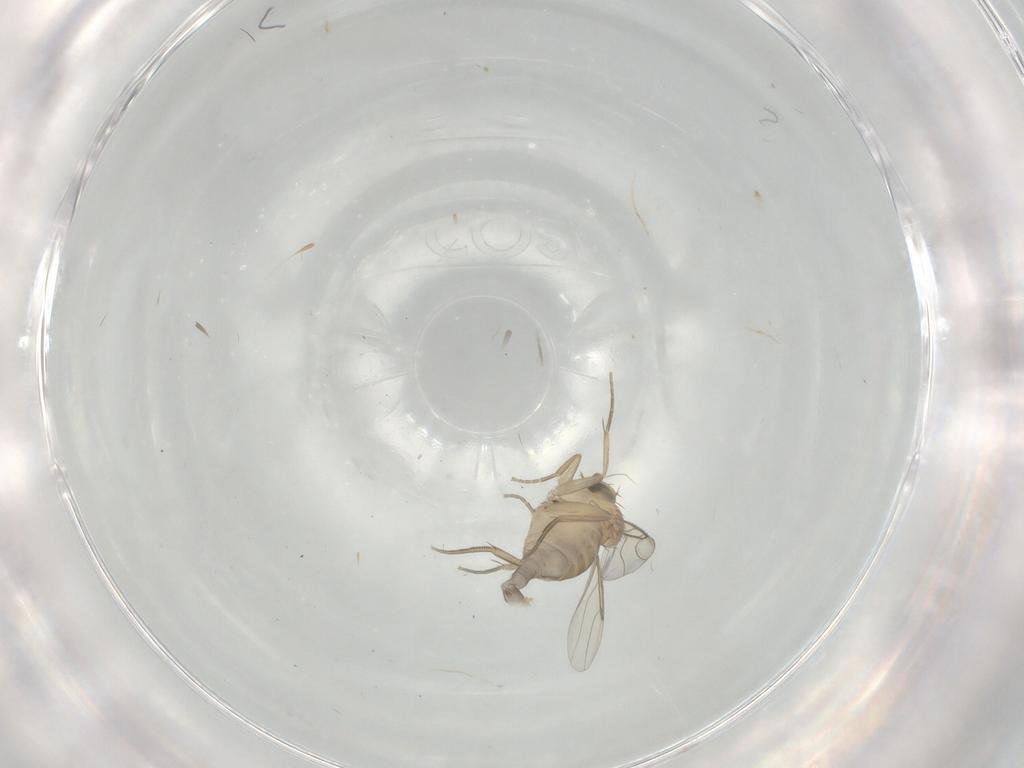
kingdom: Animalia
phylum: Arthropoda
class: Insecta
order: Diptera
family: Phoridae
